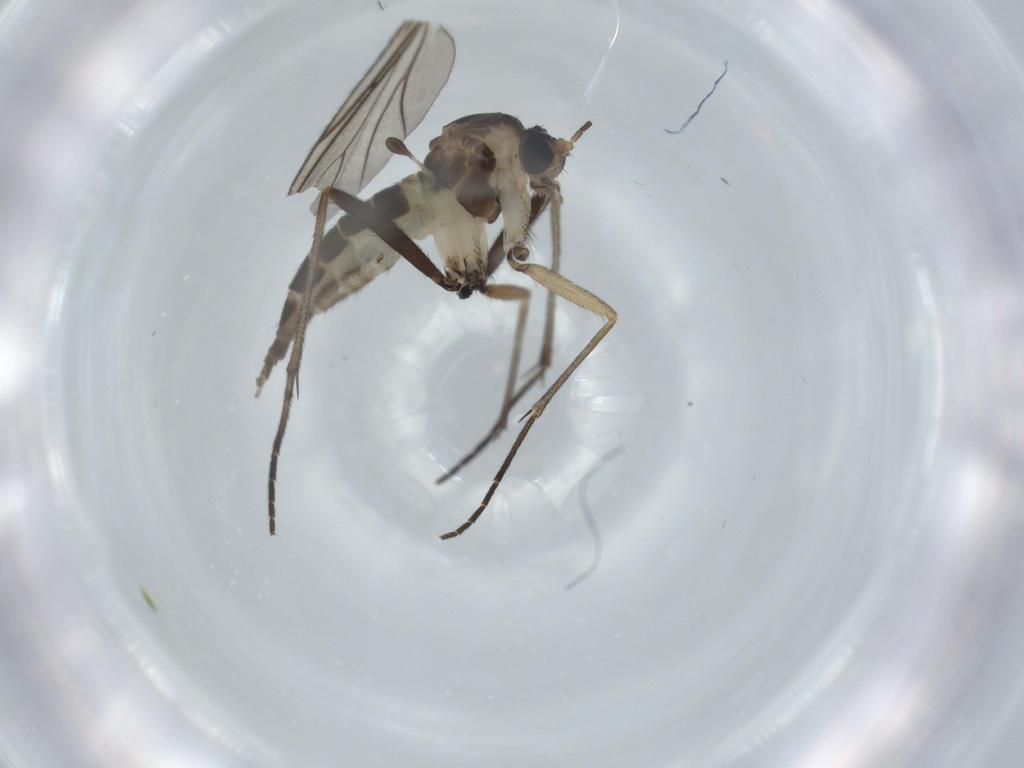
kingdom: Animalia
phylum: Arthropoda
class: Insecta
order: Diptera
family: Sciaridae
